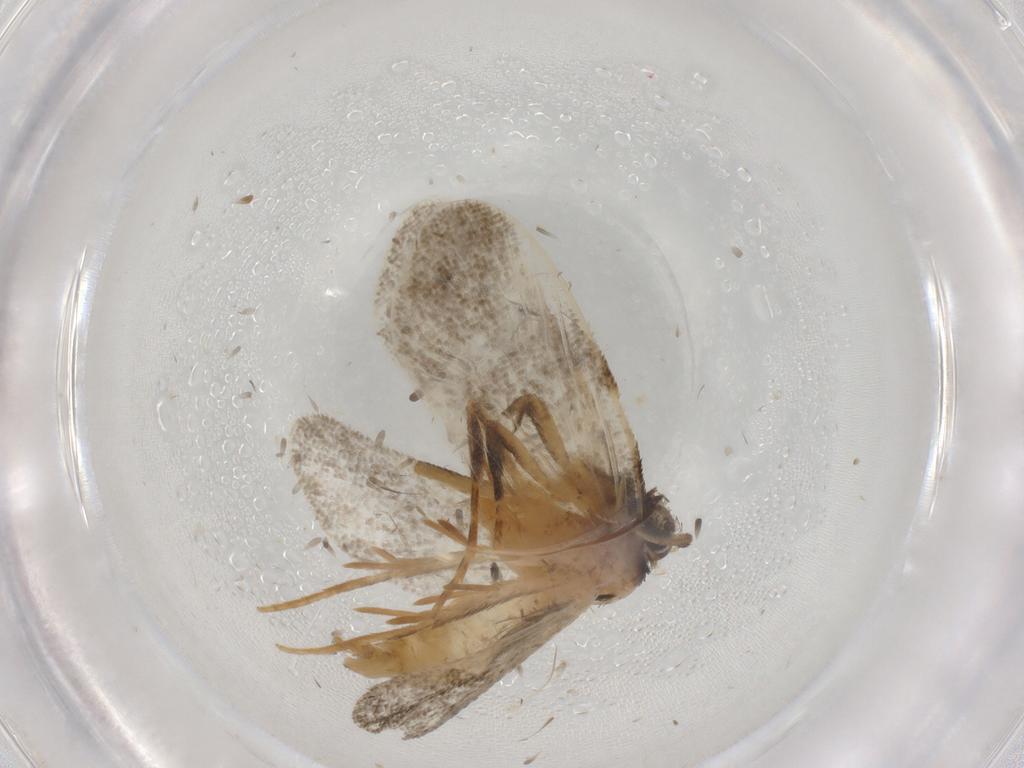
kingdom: Animalia
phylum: Arthropoda
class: Insecta
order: Lepidoptera
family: Psychidae
